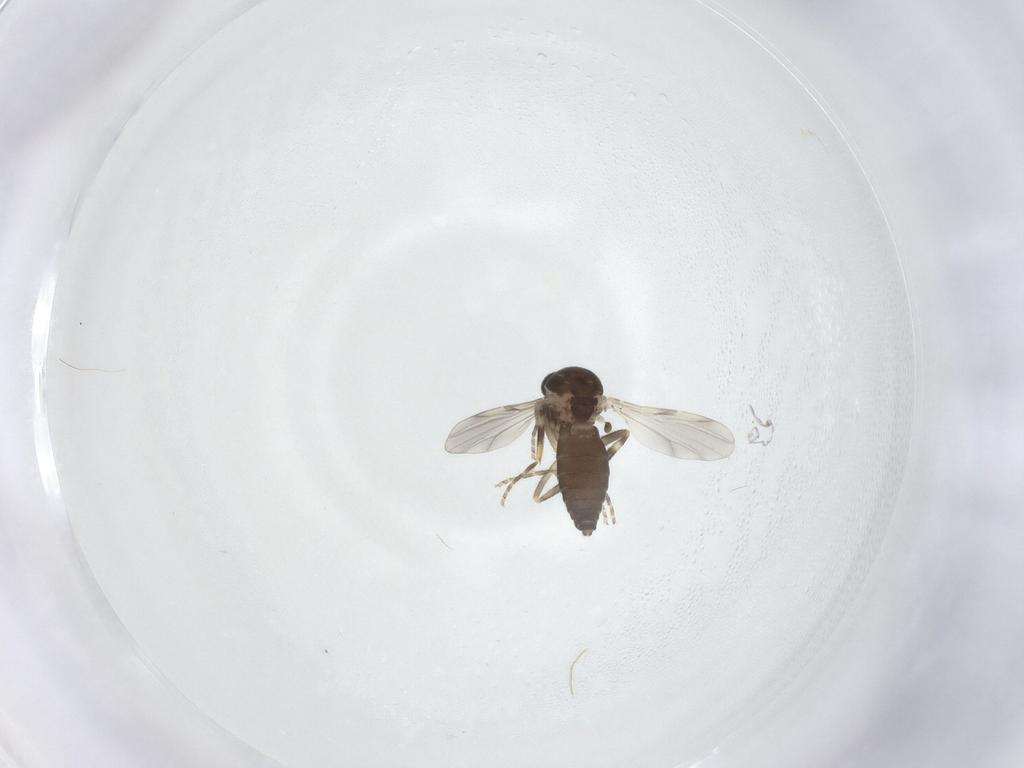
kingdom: Animalia
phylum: Arthropoda
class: Insecta
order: Diptera
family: Ceratopogonidae
